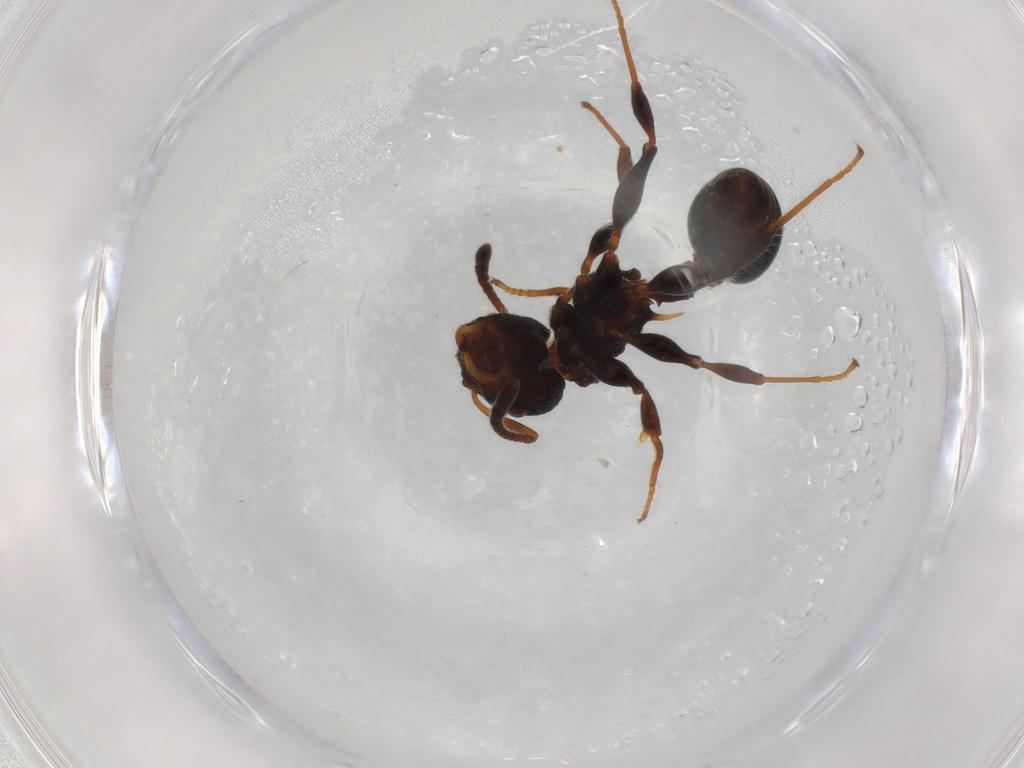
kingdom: Animalia
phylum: Arthropoda
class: Insecta
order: Hymenoptera
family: Formicidae
